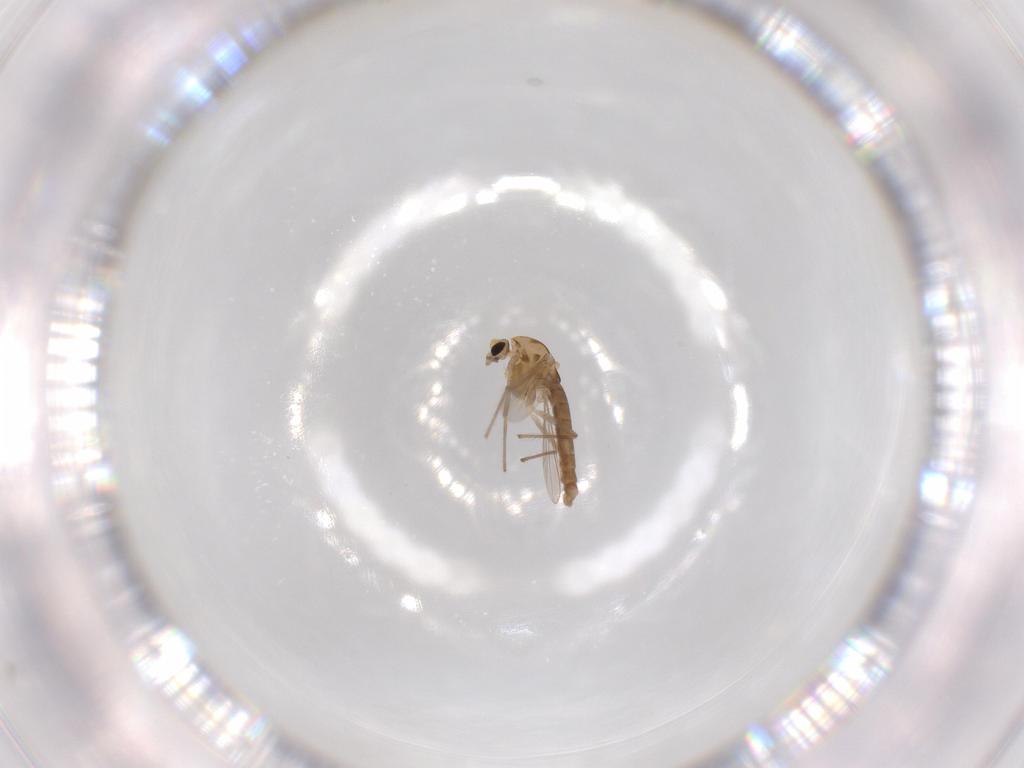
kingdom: Animalia
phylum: Arthropoda
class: Insecta
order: Diptera
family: Chironomidae
